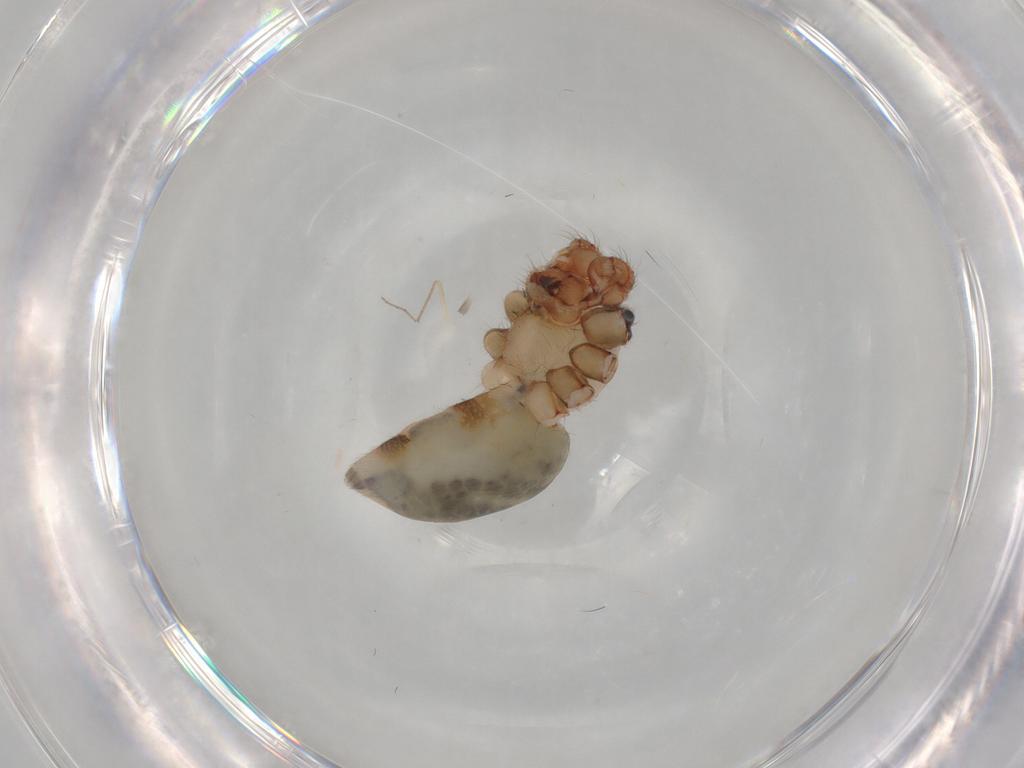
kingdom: Animalia
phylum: Arthropoda
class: Arachnida
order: Araneae
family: Pholcidae
